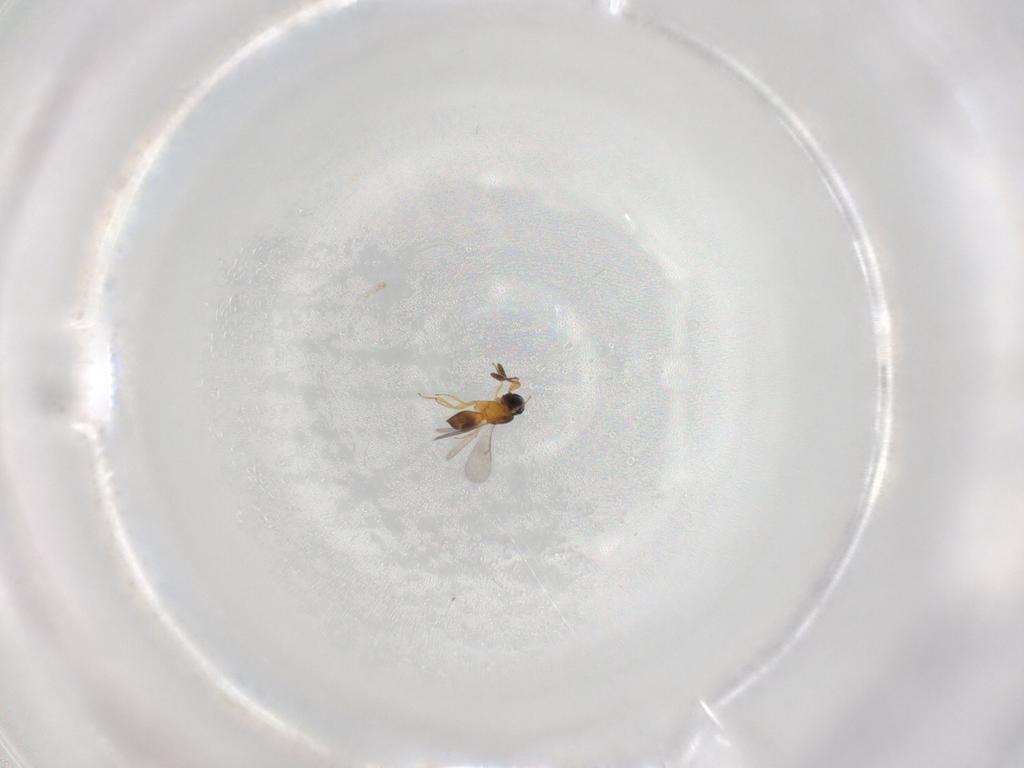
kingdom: Animalia
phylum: Arthropoda
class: Insecta
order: Hymenoptera
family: Scelionidae
